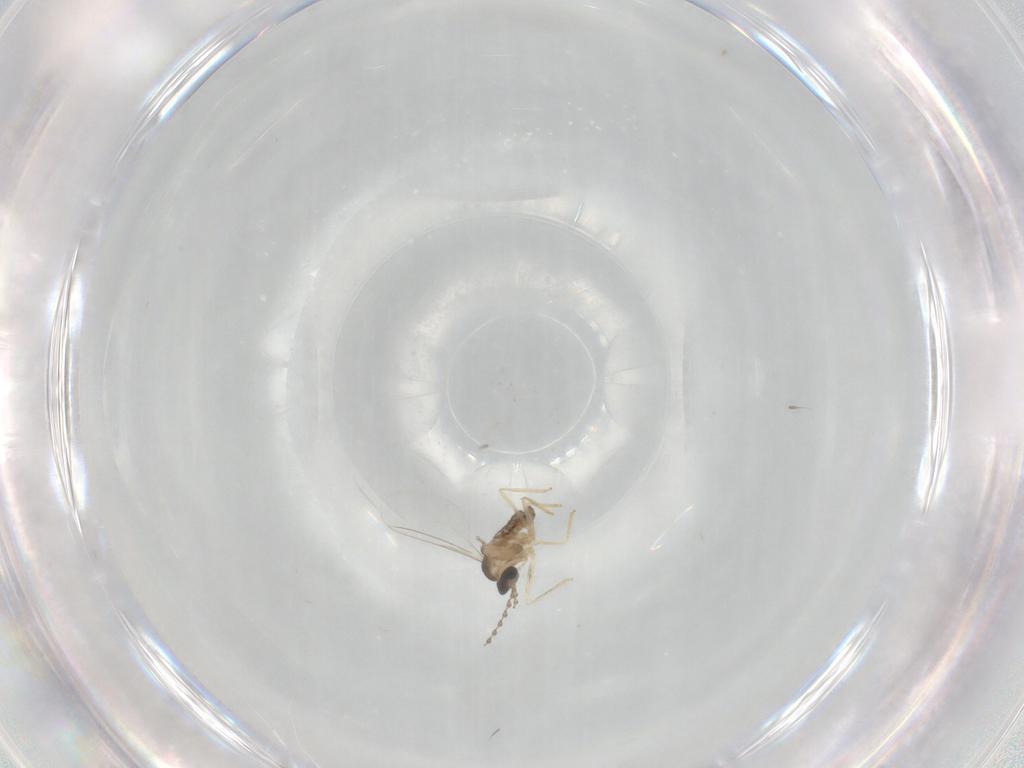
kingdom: Animalia
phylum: Arthropoda
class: Insecta
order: Diptera
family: Cecidomyiidae
